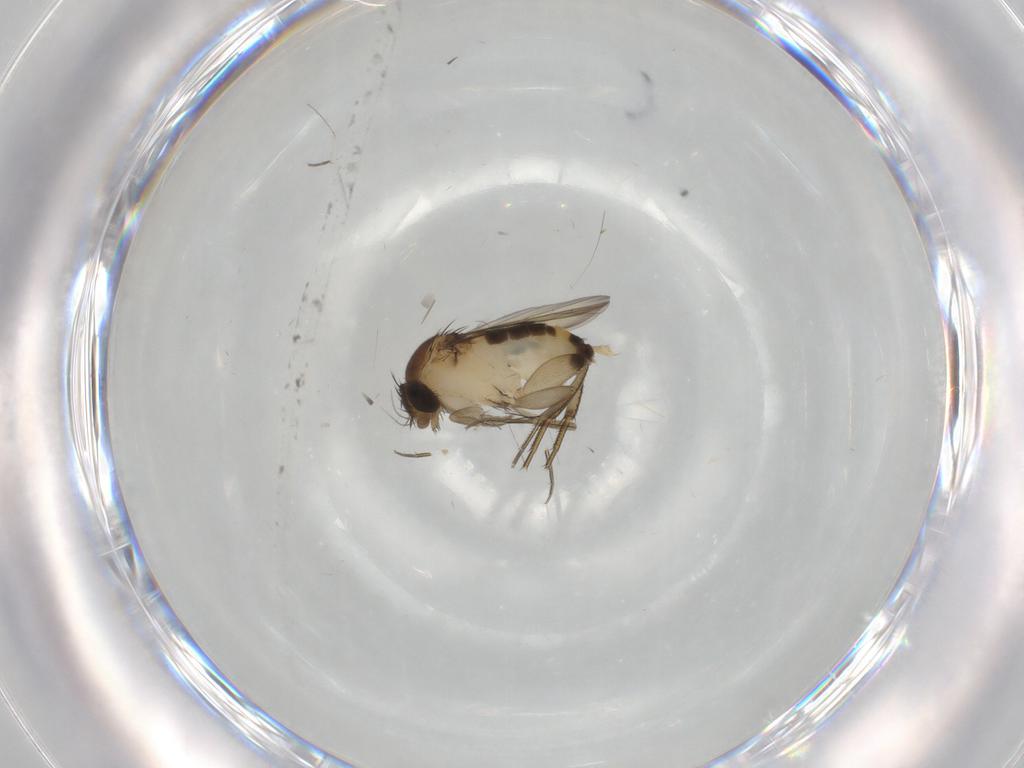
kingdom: Animalia
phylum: Arthropoda
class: Insecta
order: Diptera
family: Phoridae
